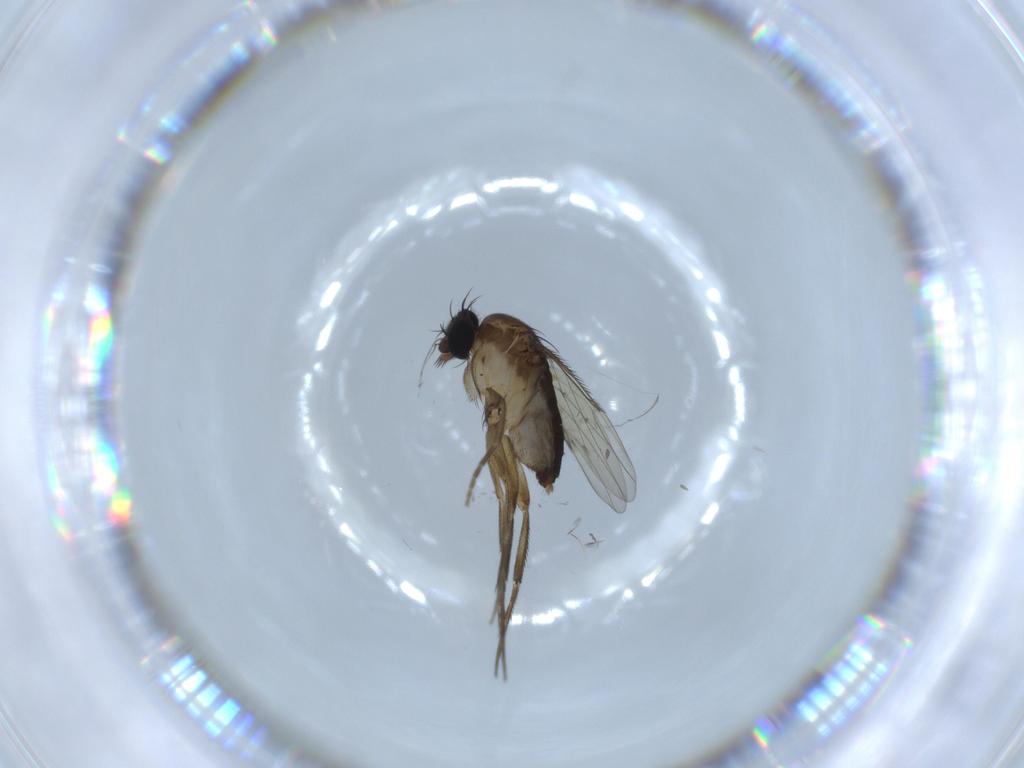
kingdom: Animalia
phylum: Arthropoda
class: Insecta
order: Diptera
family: Phoridae
